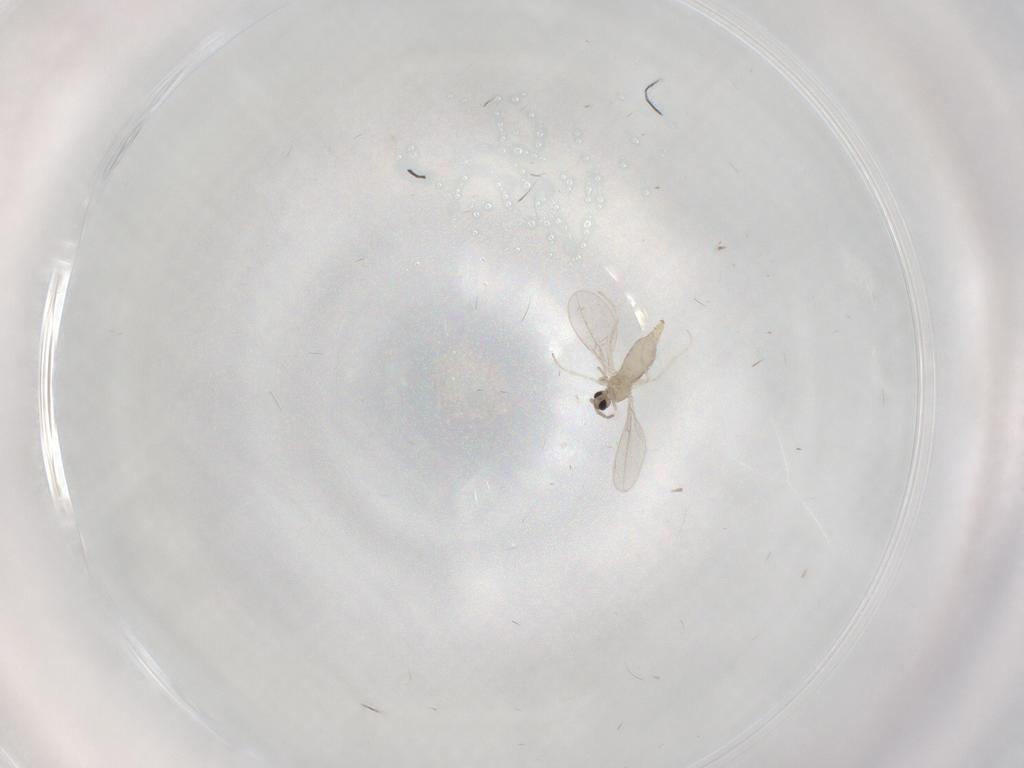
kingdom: Animalia
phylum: Arthropoda
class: Insecta
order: Diptera
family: Cecidomyiidae
